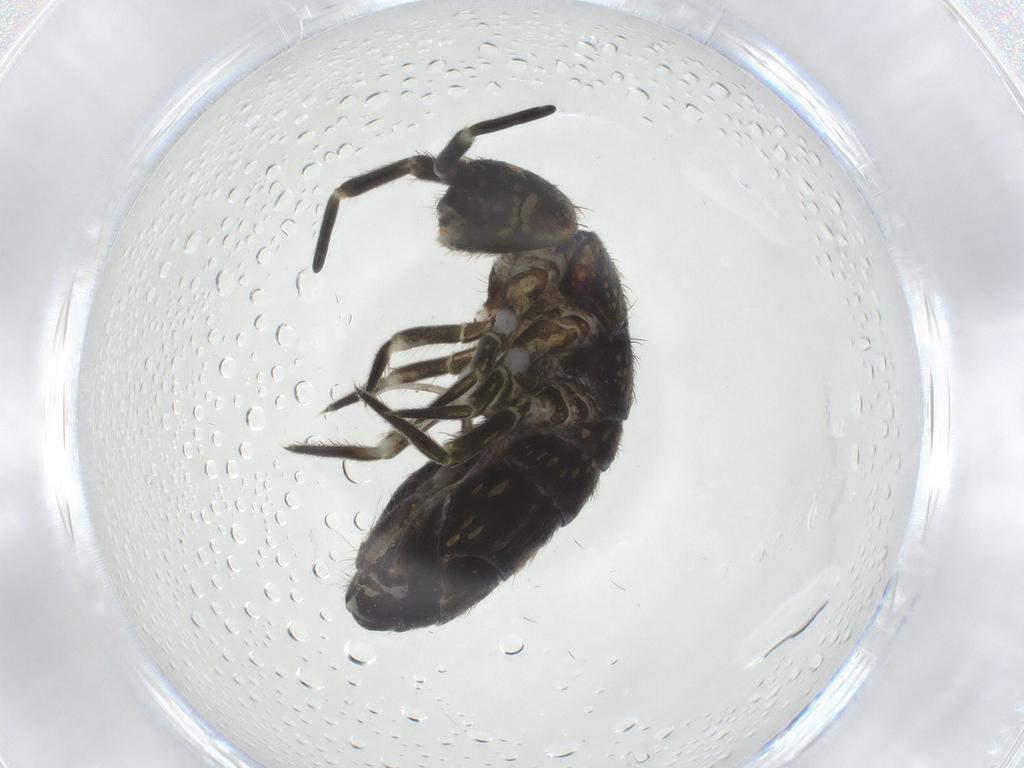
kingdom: Animalia
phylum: Arthropoda
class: Collembola
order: Entomobryomorpha
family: Isotomidae
